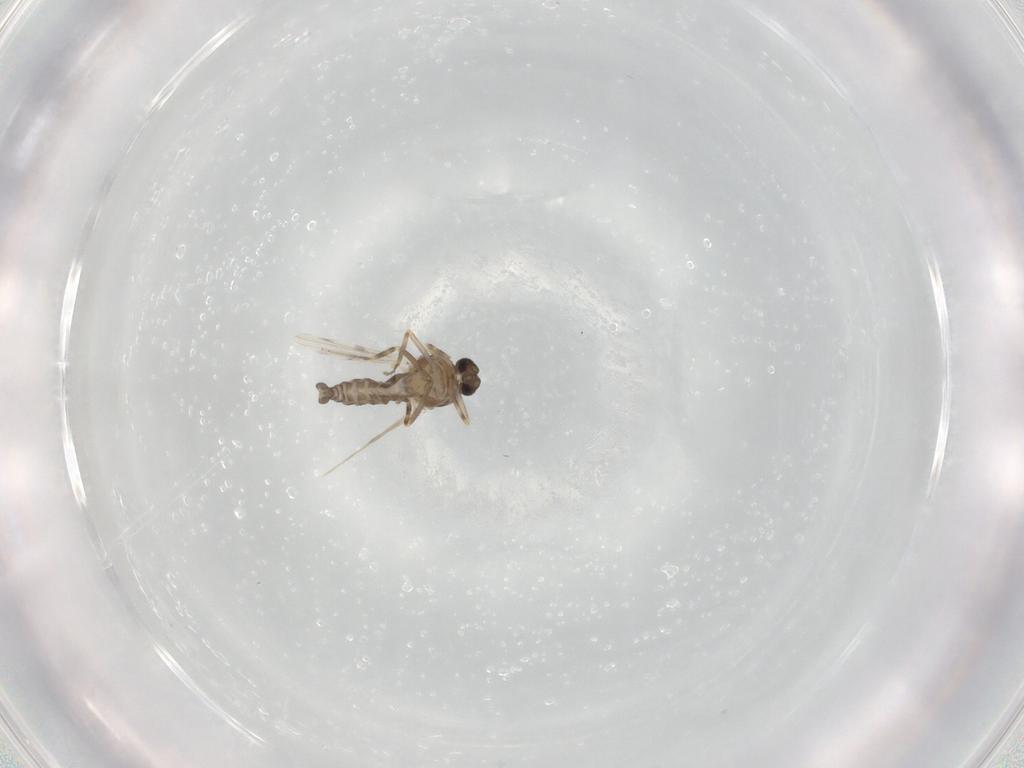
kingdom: Animalia
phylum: Arthropoda
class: Insecta
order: Diptera
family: Ceratopogonidae
